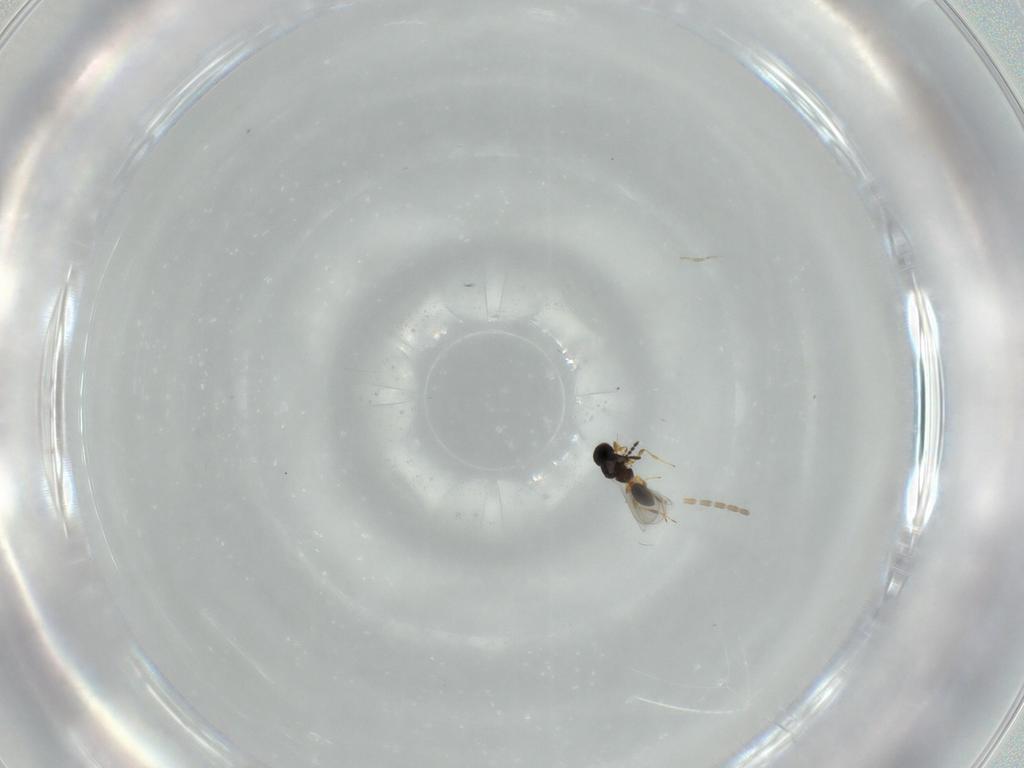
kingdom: Animalia
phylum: Arthropoda
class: Insecta
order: Hymenoptera
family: Platygastridae
